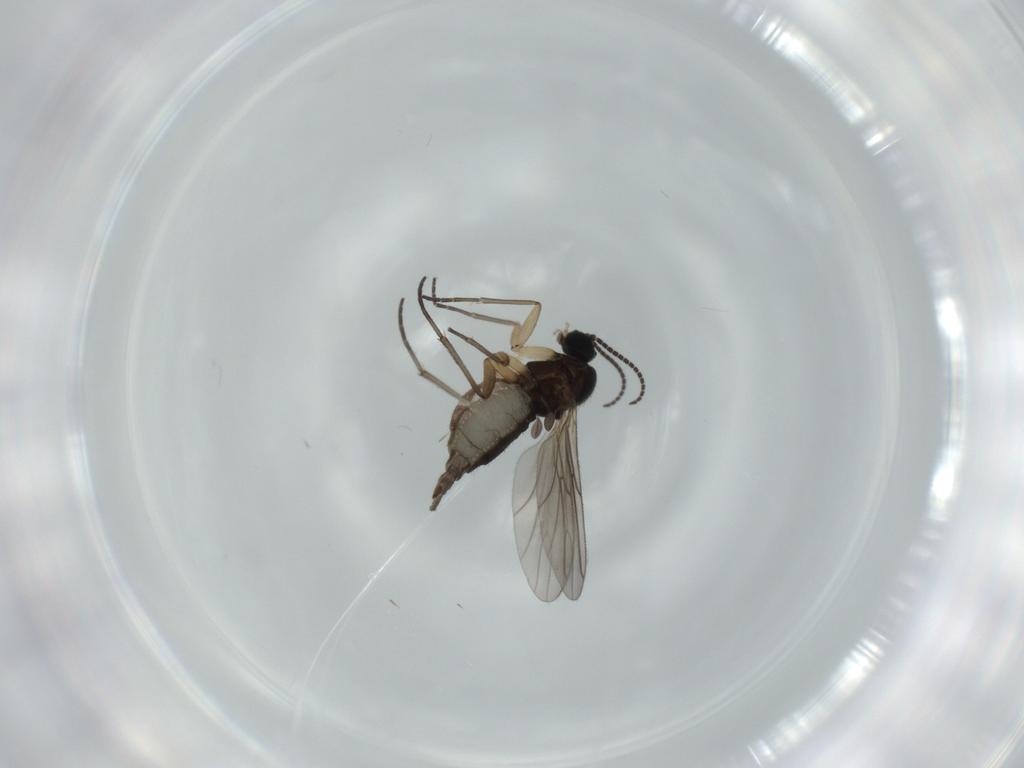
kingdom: Animalia
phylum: Arthropoda
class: Insecta
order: Diptera
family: Sciaridae
